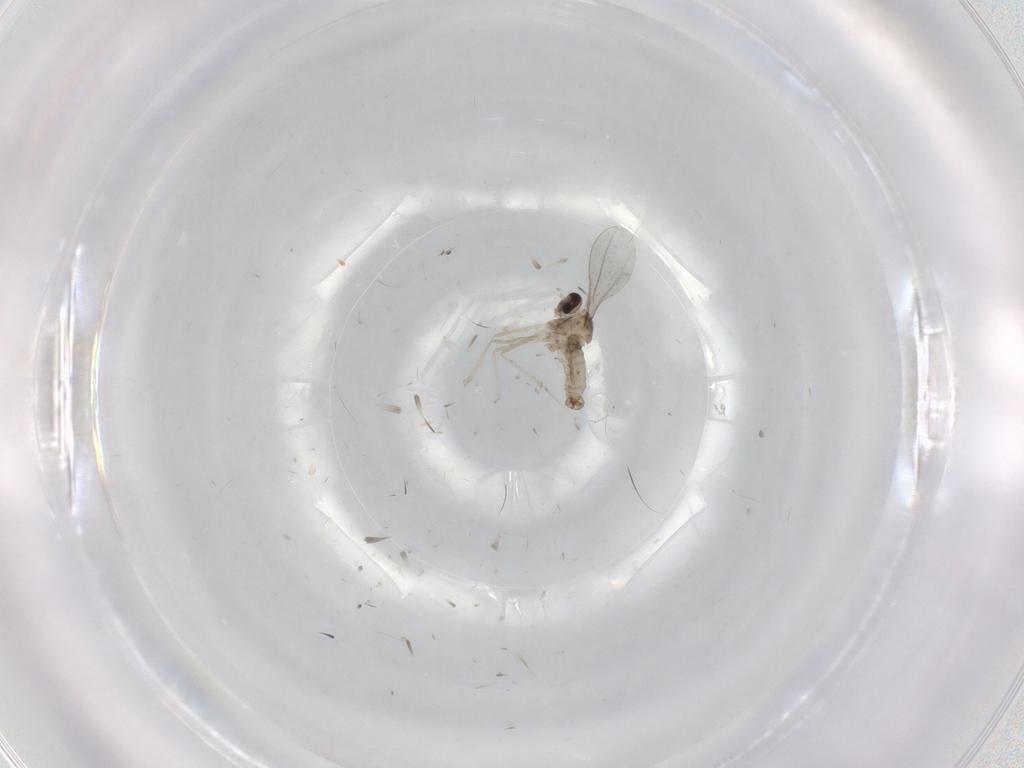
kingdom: Animalia
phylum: Arthropoda
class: Insecta
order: Diptera
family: Cecidomyiidae
